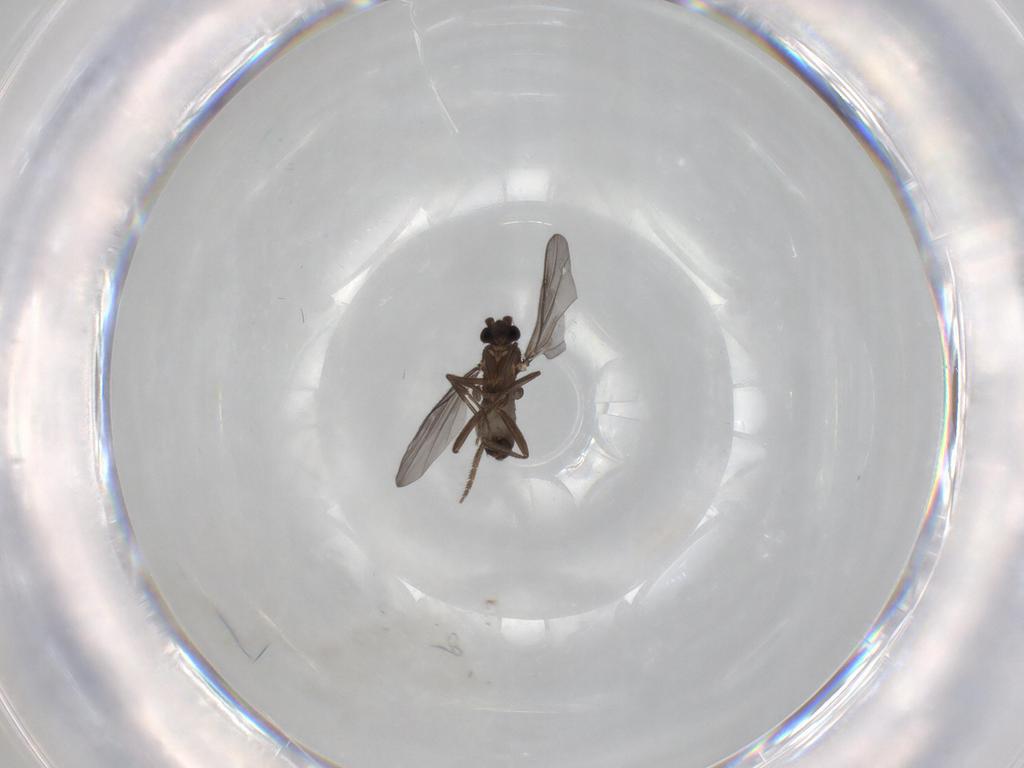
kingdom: Animalia
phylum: Arthropoda
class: Insecta
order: Diptera
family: Phoridae
